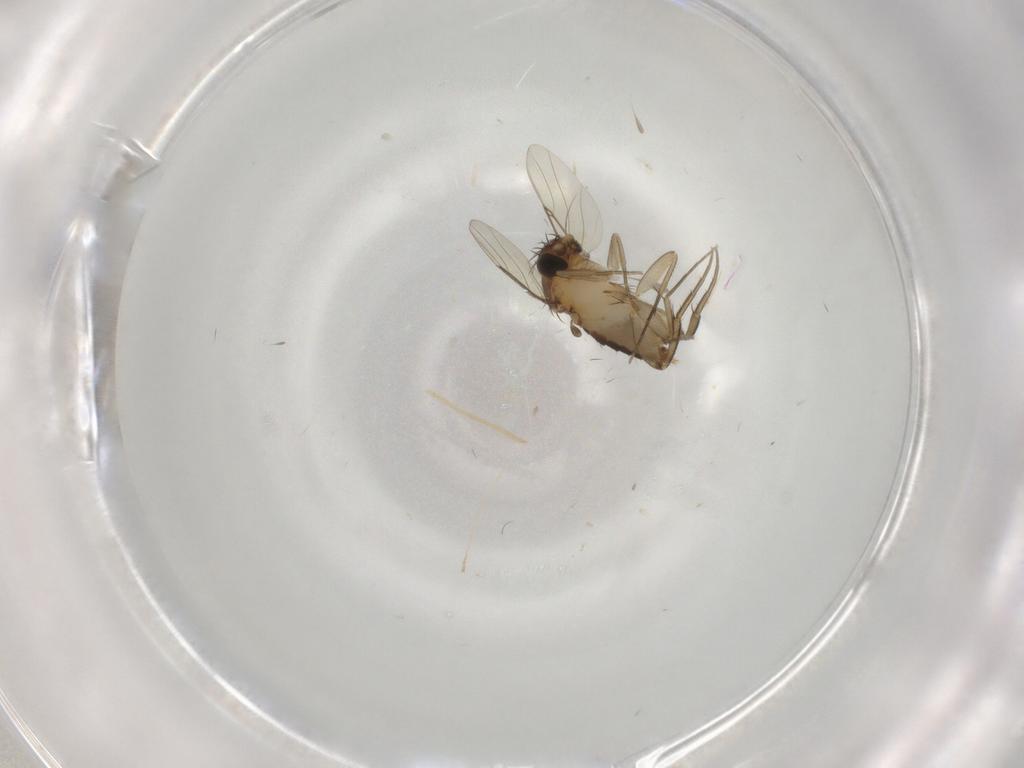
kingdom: Animalia
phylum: Arthropoda
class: Insecta
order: Diptera
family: Phoridae
